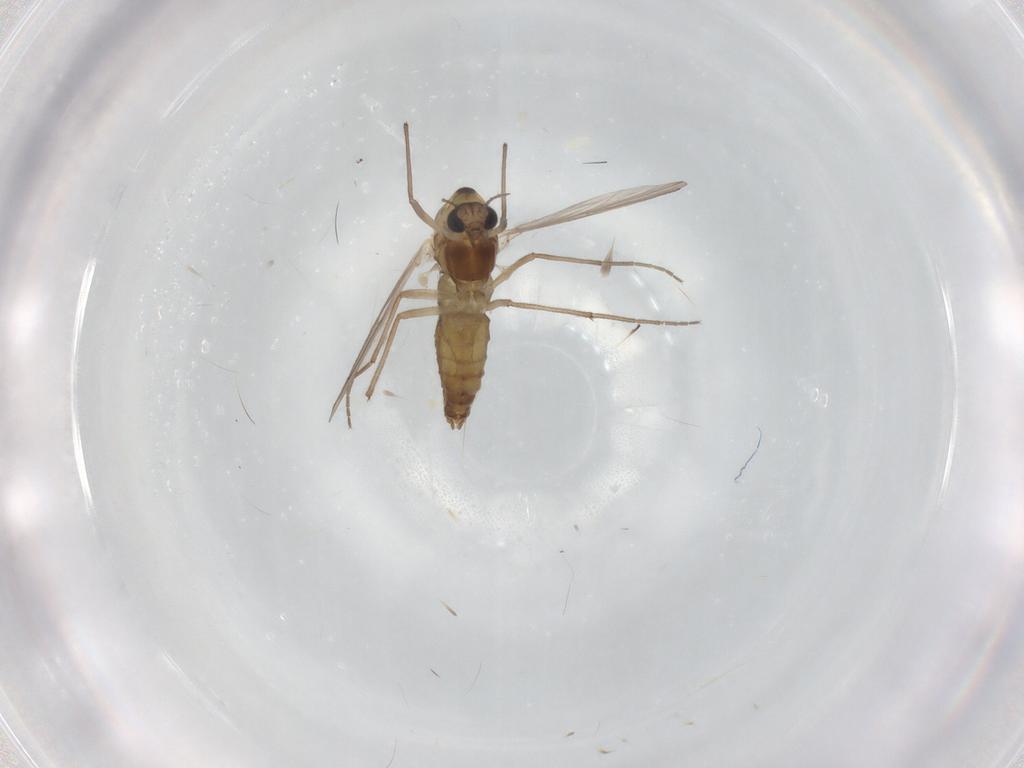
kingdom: Animalia
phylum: Arthropoda
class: Insecta
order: Diptera
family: Chironomidae
